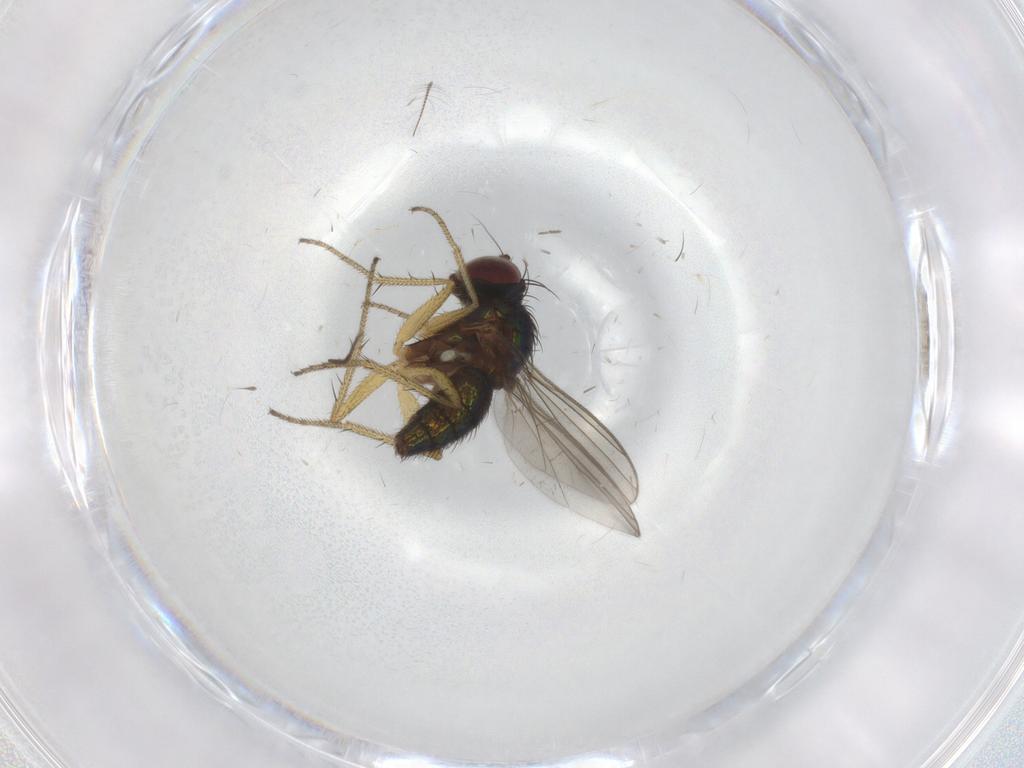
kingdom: Animalia
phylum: Arthropoda
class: Insecta
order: Diptera
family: Chironomidae
